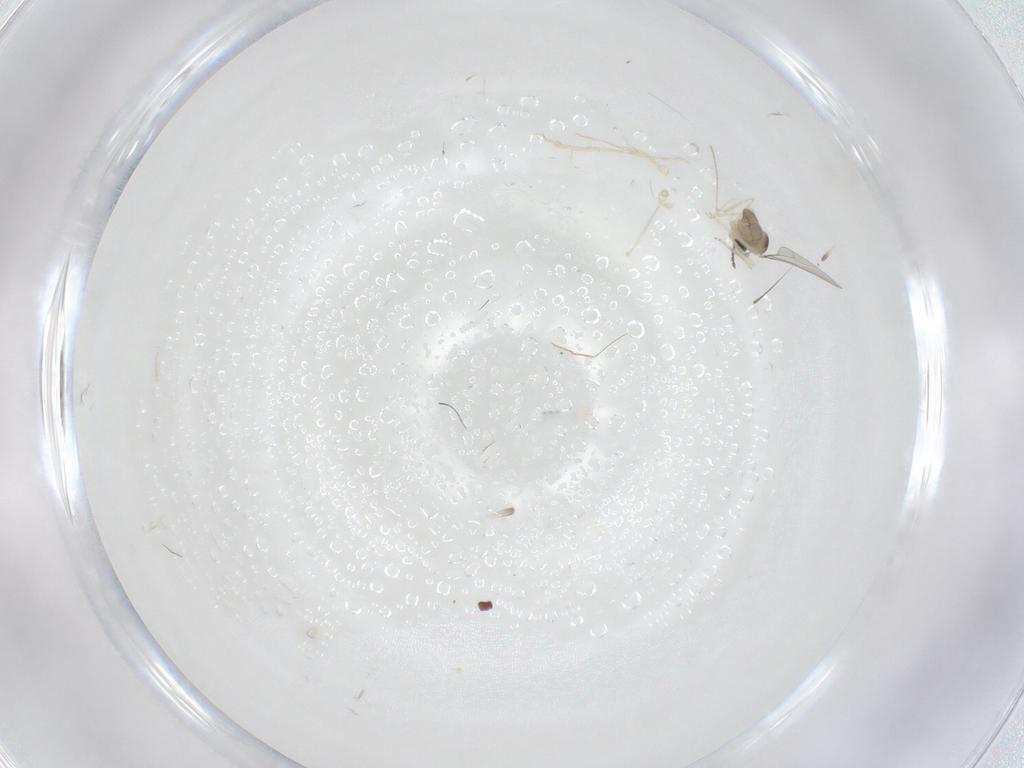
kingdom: Animalia
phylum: Arthropoda
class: Insecta
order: Diptera
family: Cecidomyiidae
